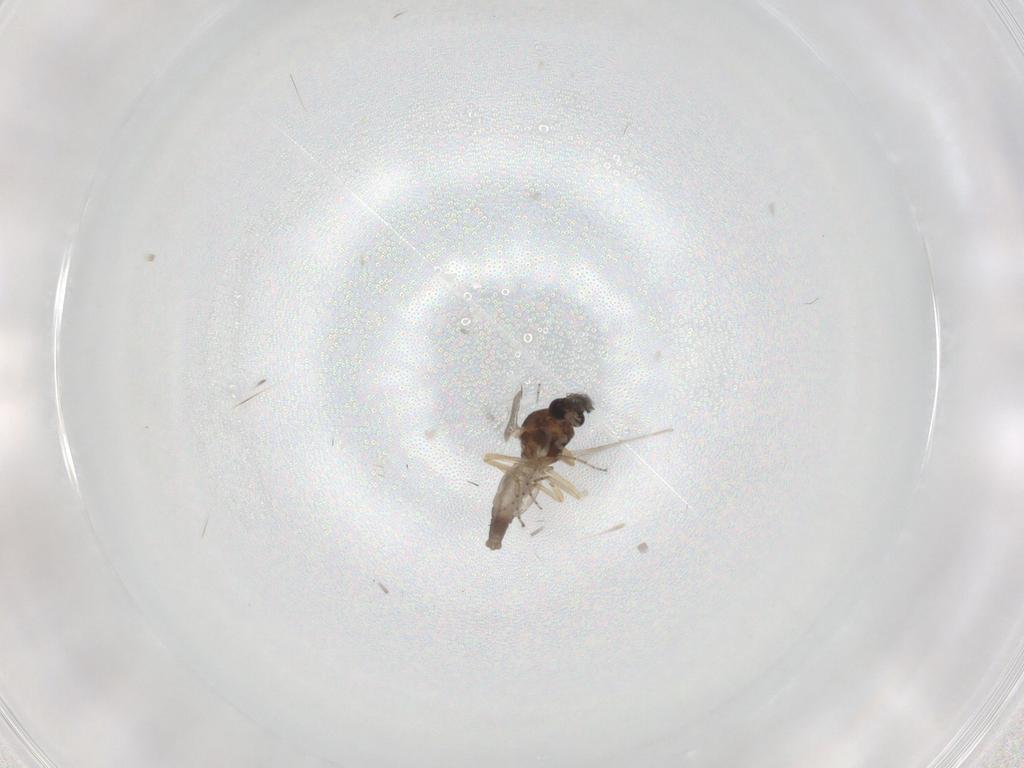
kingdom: Animalia
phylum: Arthropoda
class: Insecta
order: Diptera
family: Ceratopogonidae
